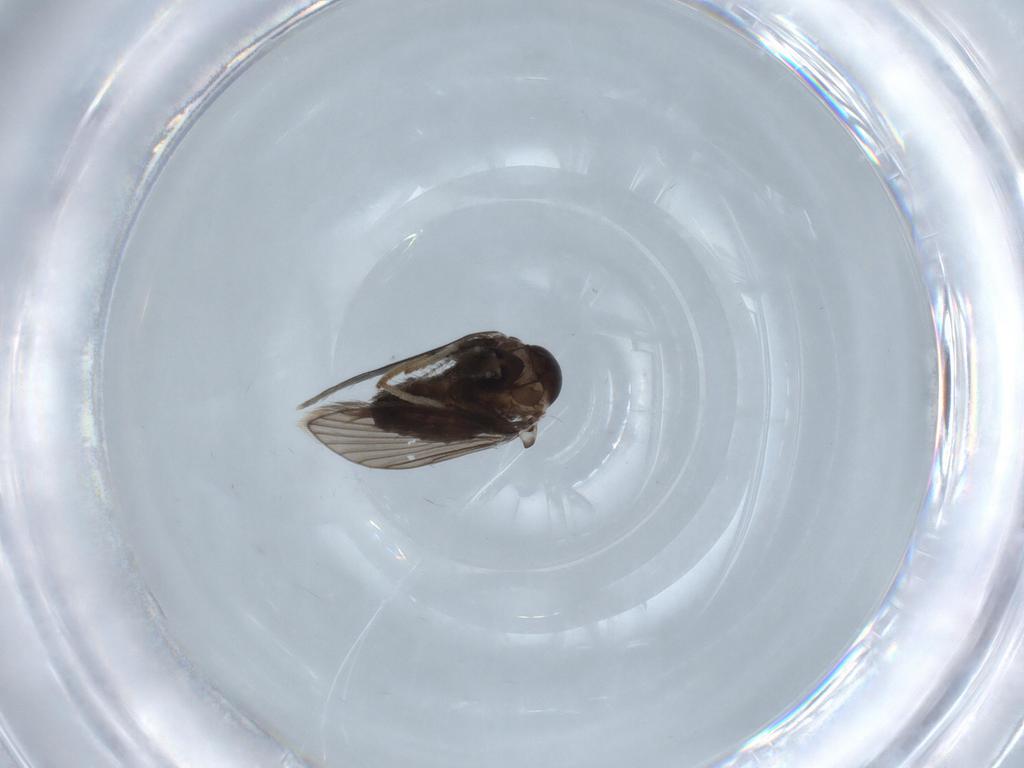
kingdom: Animalia
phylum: Arthropoda
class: Insecta
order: Diptera
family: Psychodidae
